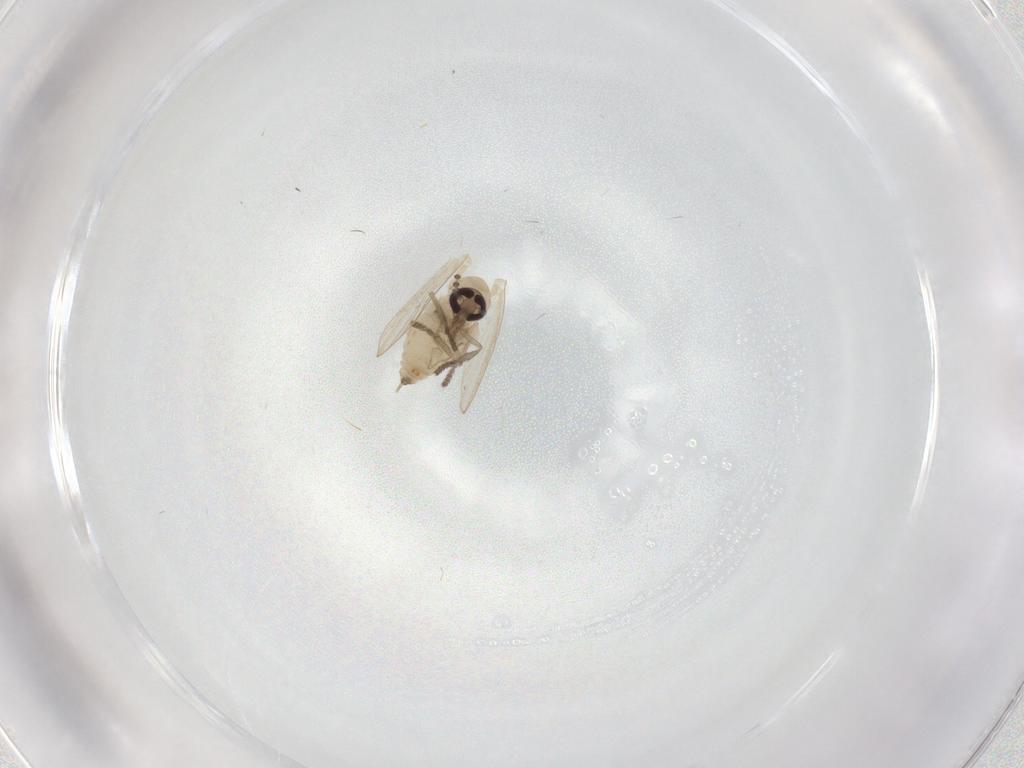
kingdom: Animalia
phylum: Arthropoda
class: Insecta
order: Diptera
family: Psychodidae
